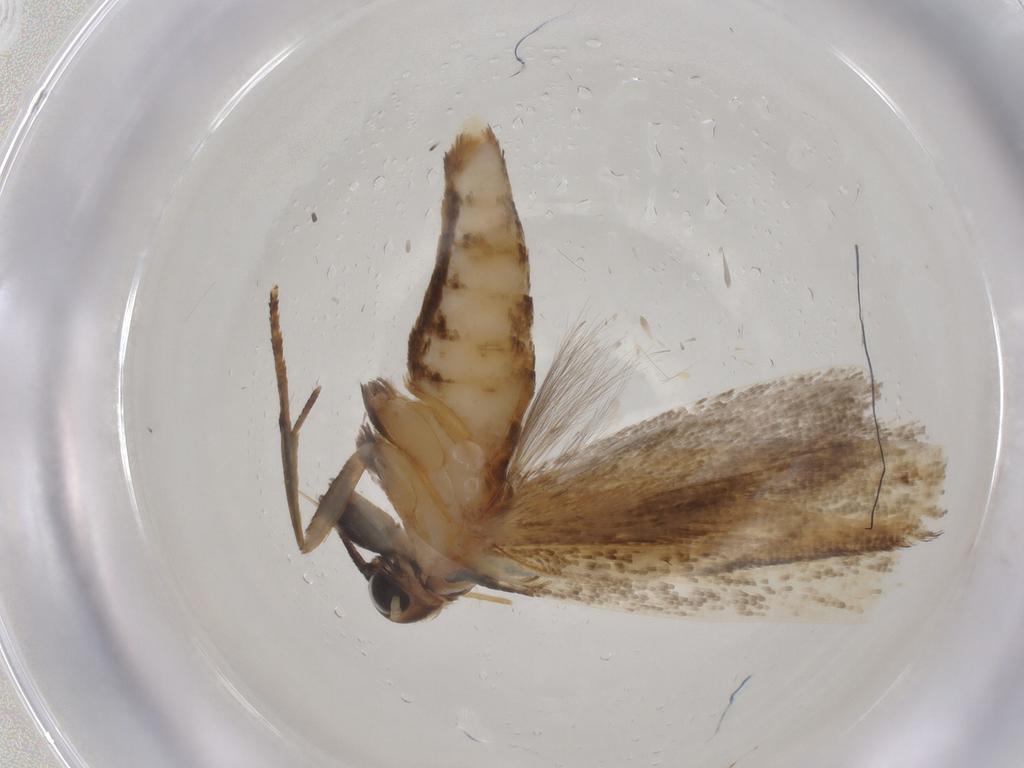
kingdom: Animalia
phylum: Arthropoda
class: Insecta
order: Lepidoptera
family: Gelechiidae
